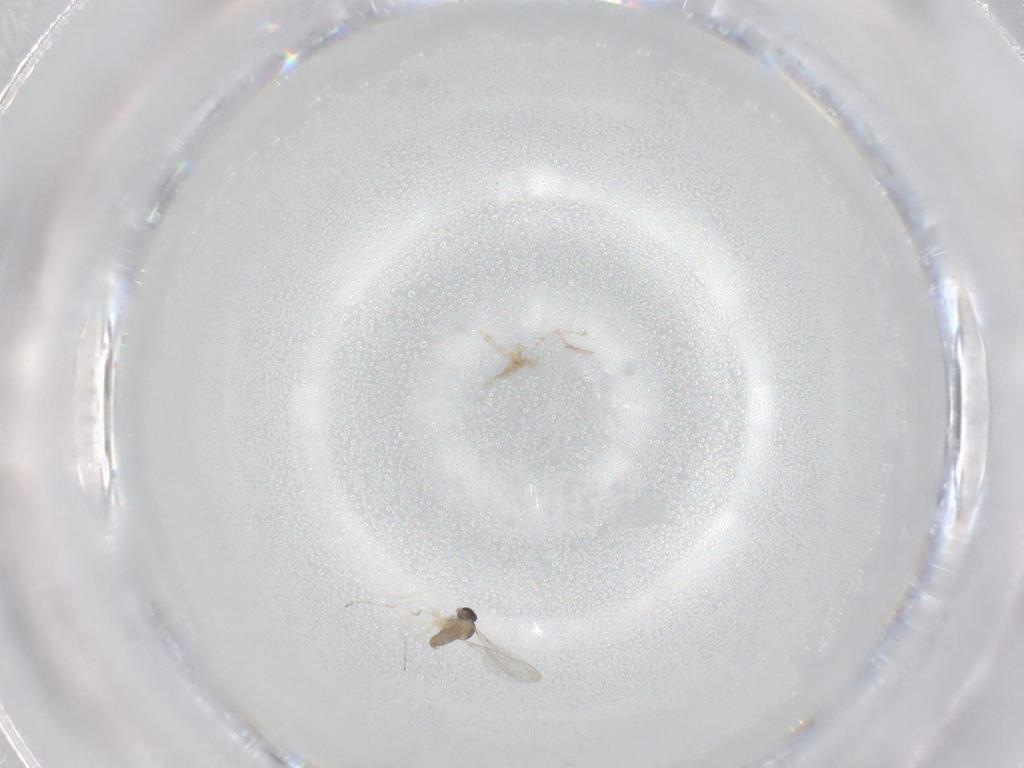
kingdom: Animalia
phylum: Arthropoda
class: Insecta
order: Diptera
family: Chironomidae
